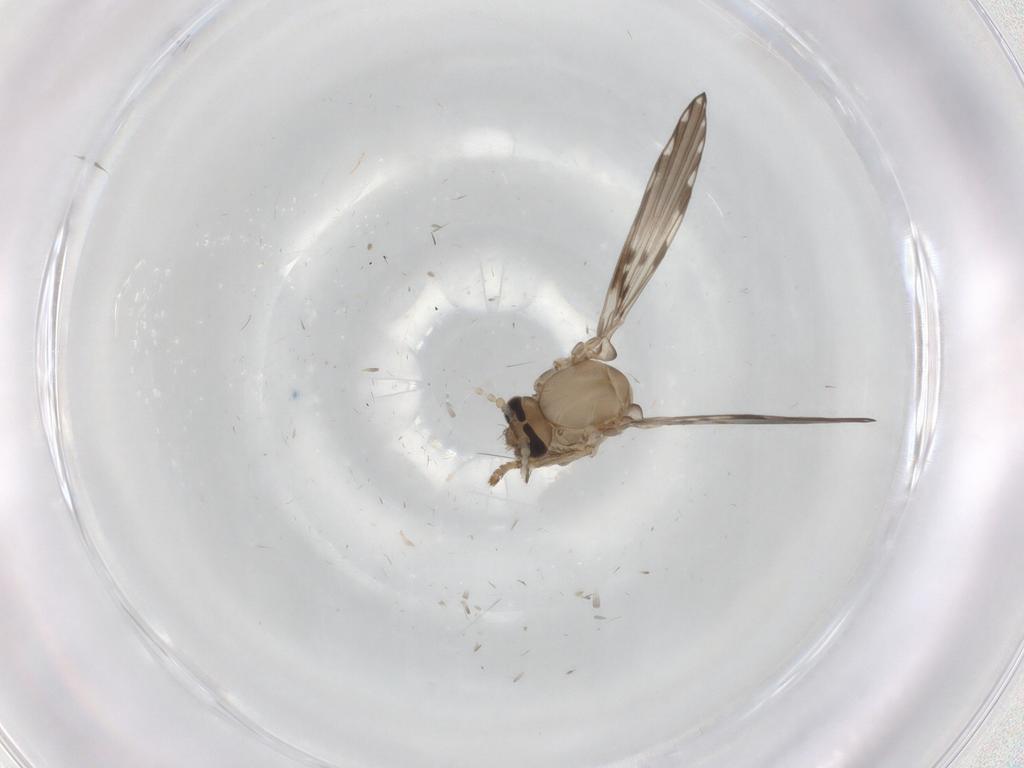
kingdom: Animalia
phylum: Arthropoda
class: Insecta
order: Diptera
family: Psychodidae
